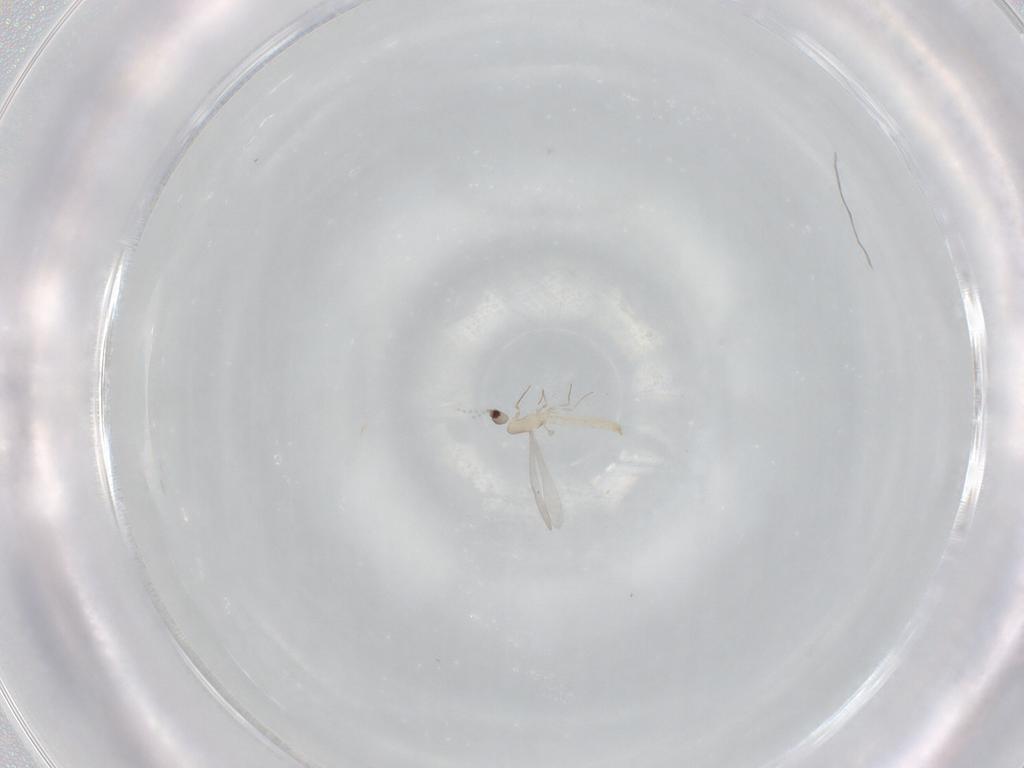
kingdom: Animalia
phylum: Arthropoda
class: Insecta
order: Diptera
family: Cecidomyiidae
